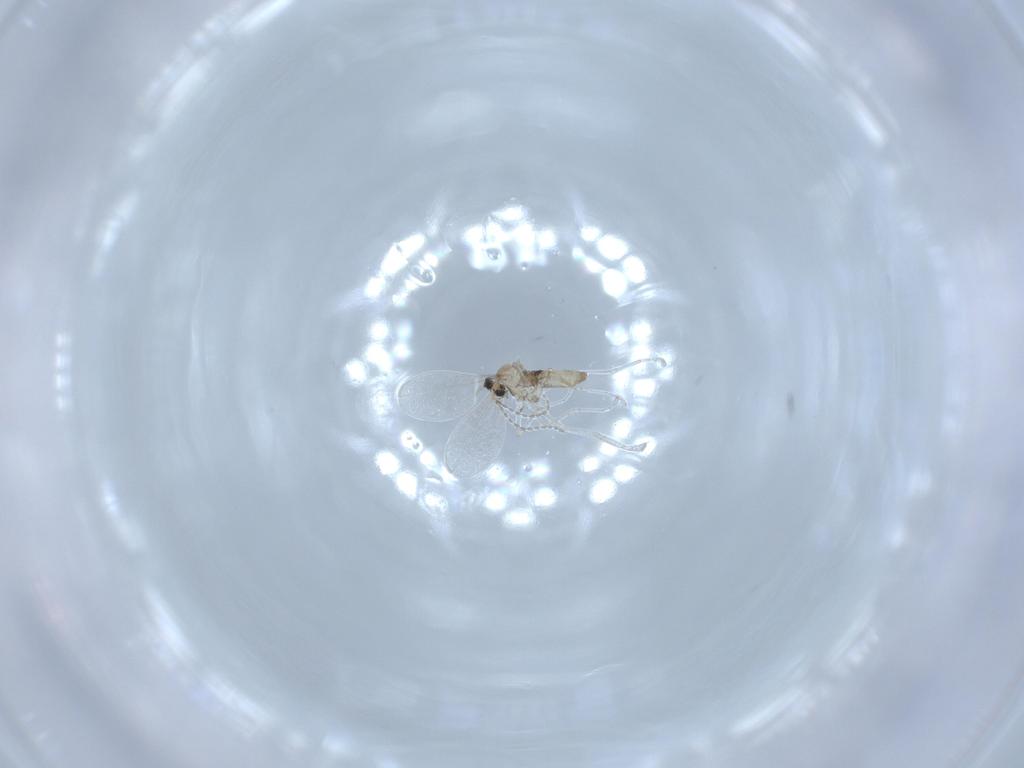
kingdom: Animalia
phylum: Arthropoda
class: Insecta
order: Diptera
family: Cecidomyiidae
